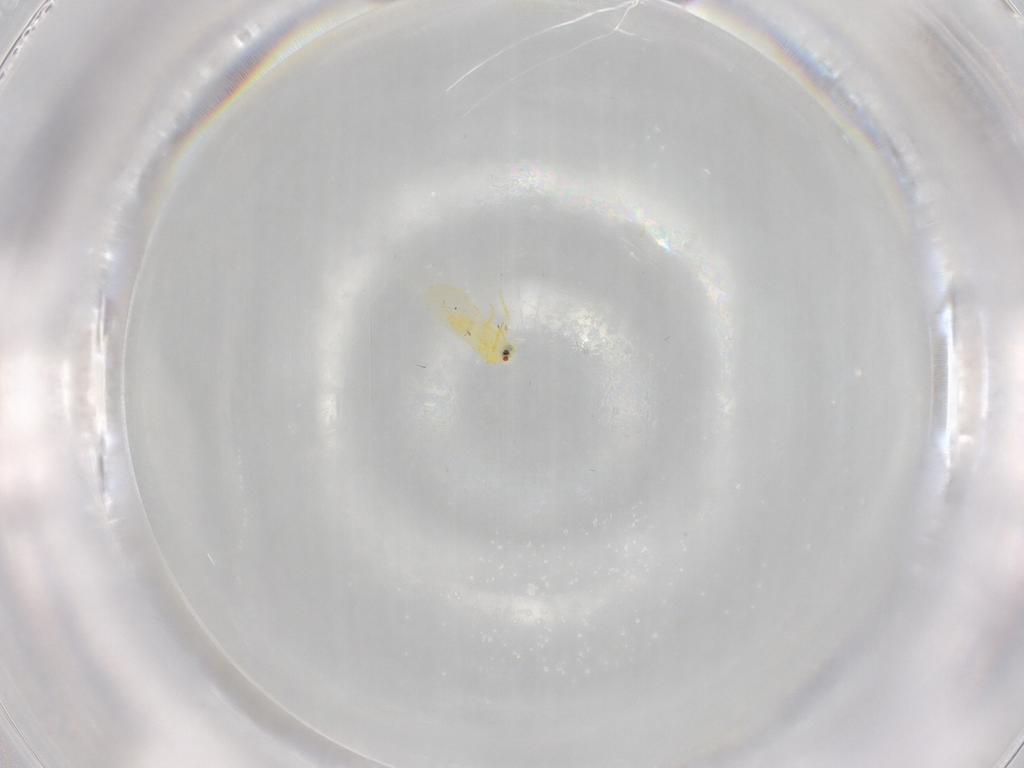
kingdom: Animalia
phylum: Arthropoda
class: Insecta
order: Hemiptera
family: Aleyrodidae
